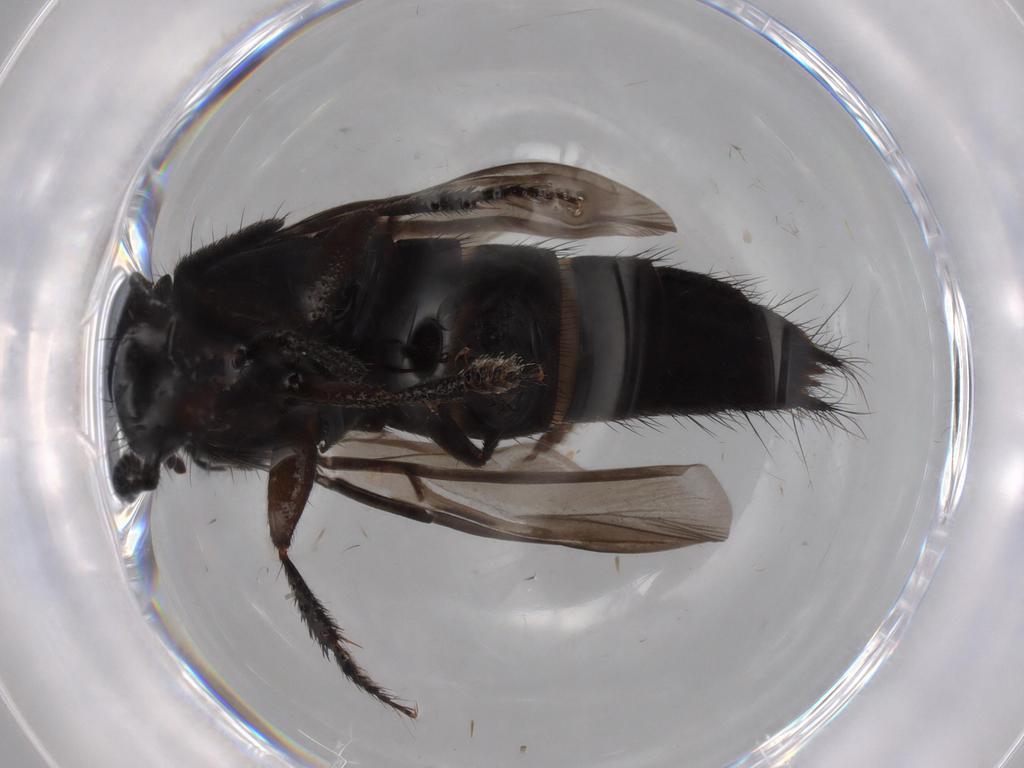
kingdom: Animalia
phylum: Arthropoda
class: Insecta
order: Coleoptera
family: Staphylinidae
